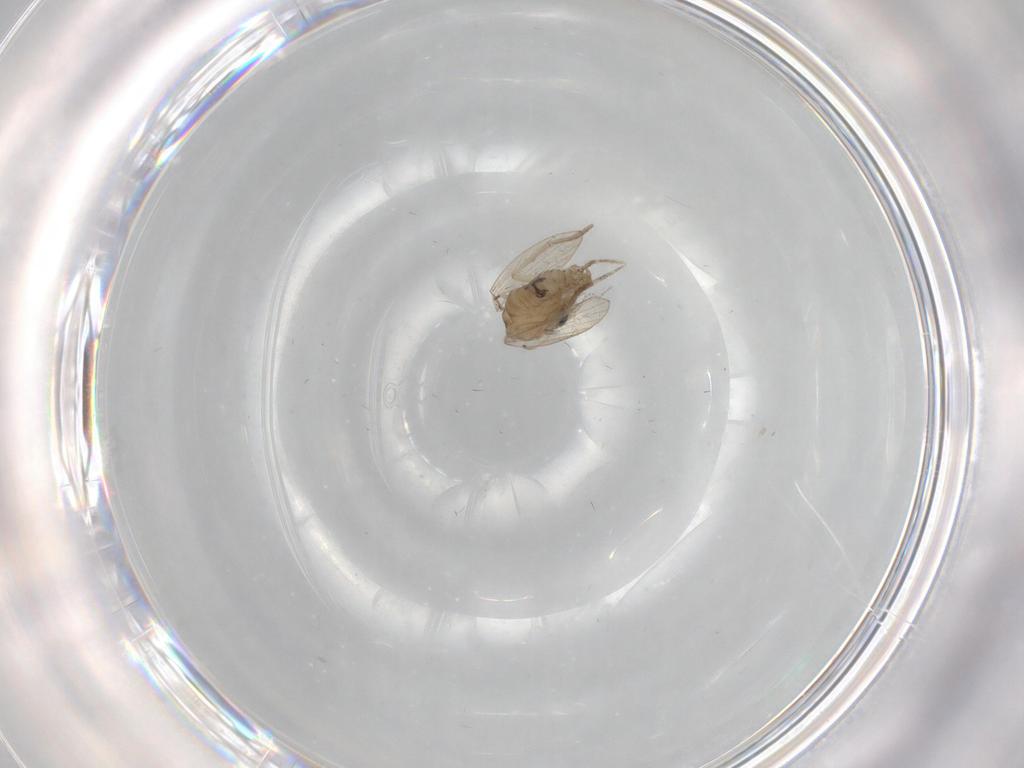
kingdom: Animalia
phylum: Arthropoda
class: Insecta
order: Diptera
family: Psychodidae
